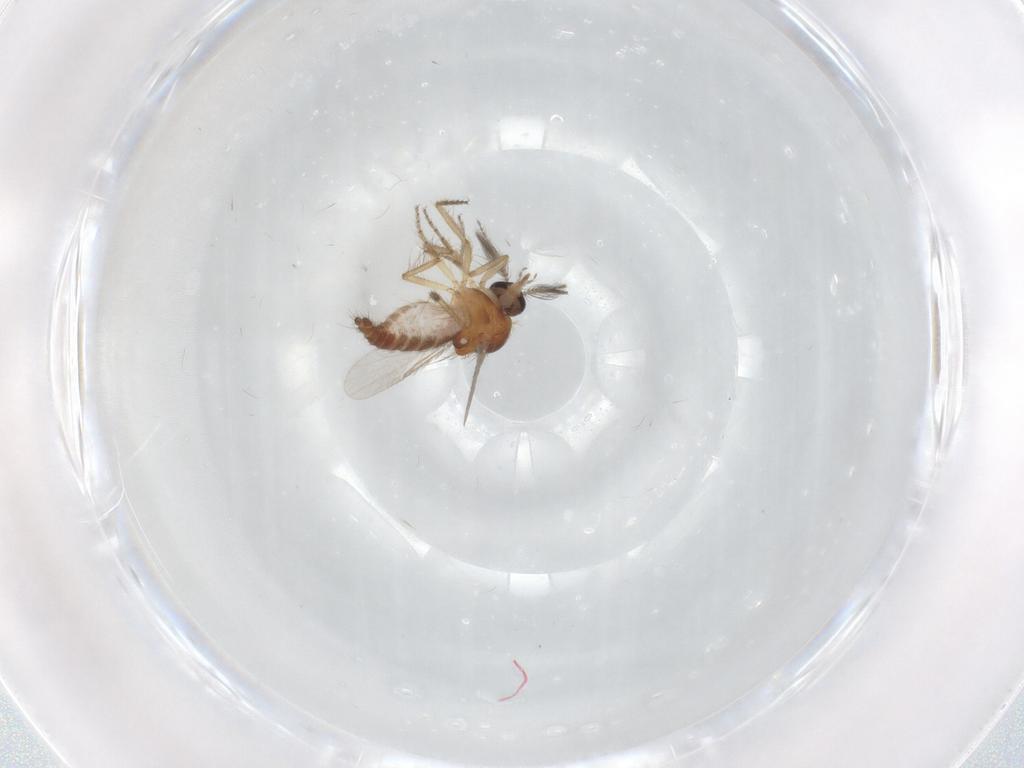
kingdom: Animalia
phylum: Arthropoda
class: Insecta
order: Diptera
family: Ceratopogonidae
